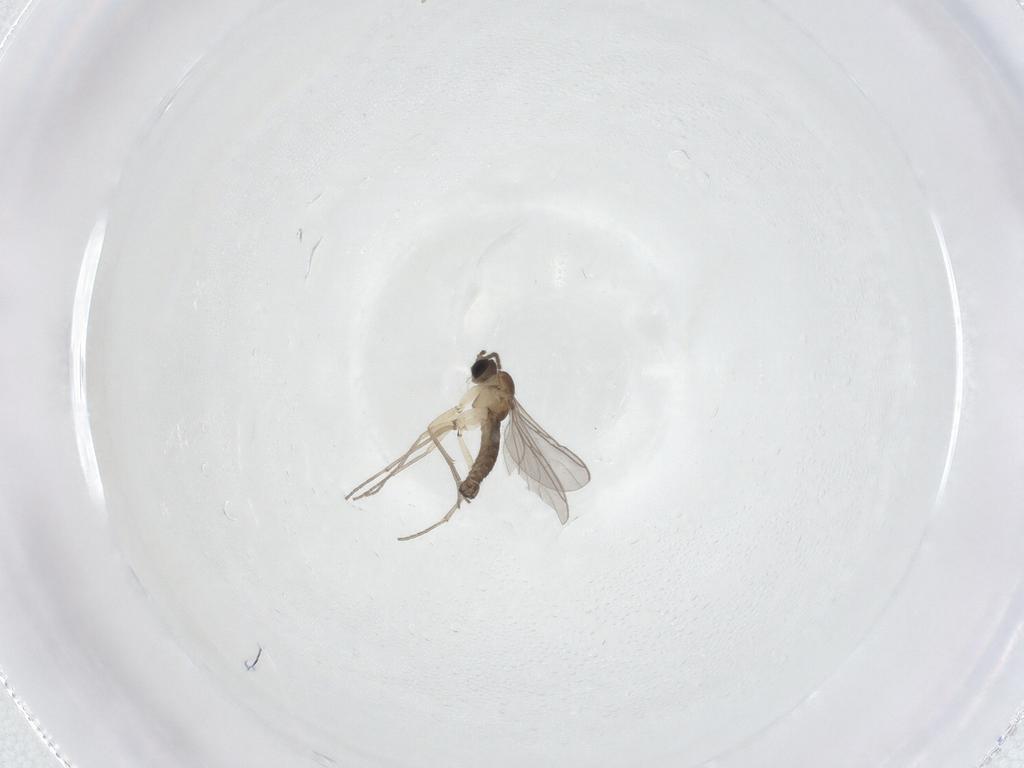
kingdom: Animalia
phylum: Arthropoda
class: Insecta
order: Diptera
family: Sciaridae
